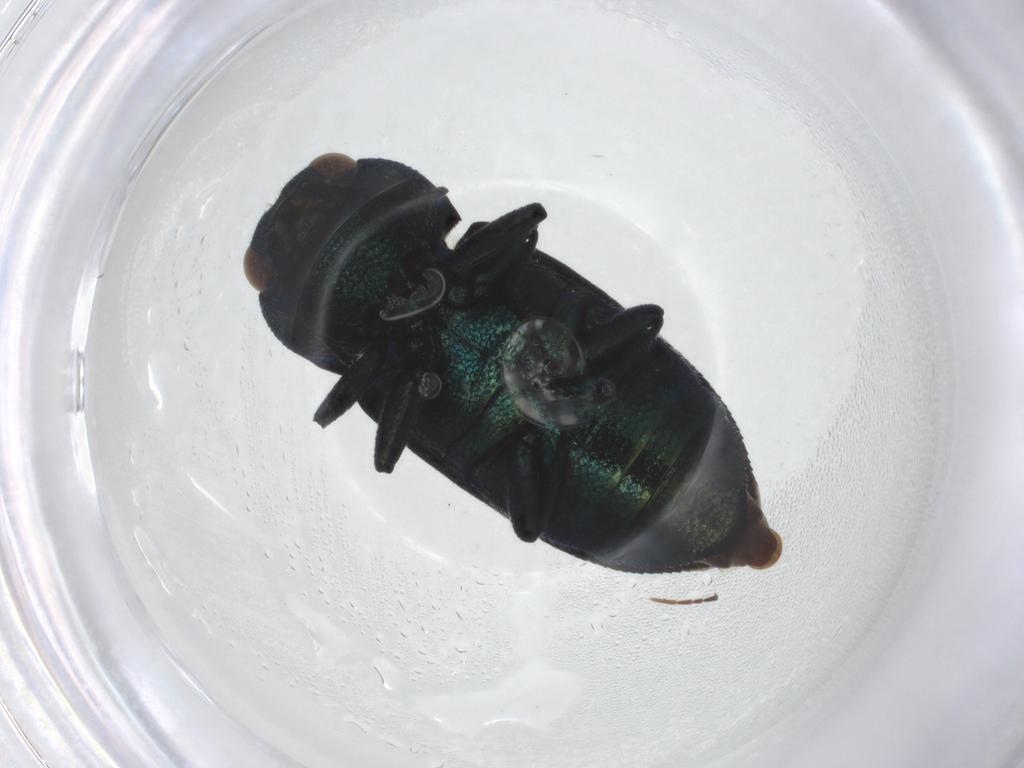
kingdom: Animalia
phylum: Arthropoda
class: Insecta
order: Coleoptera
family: Buprestidae
